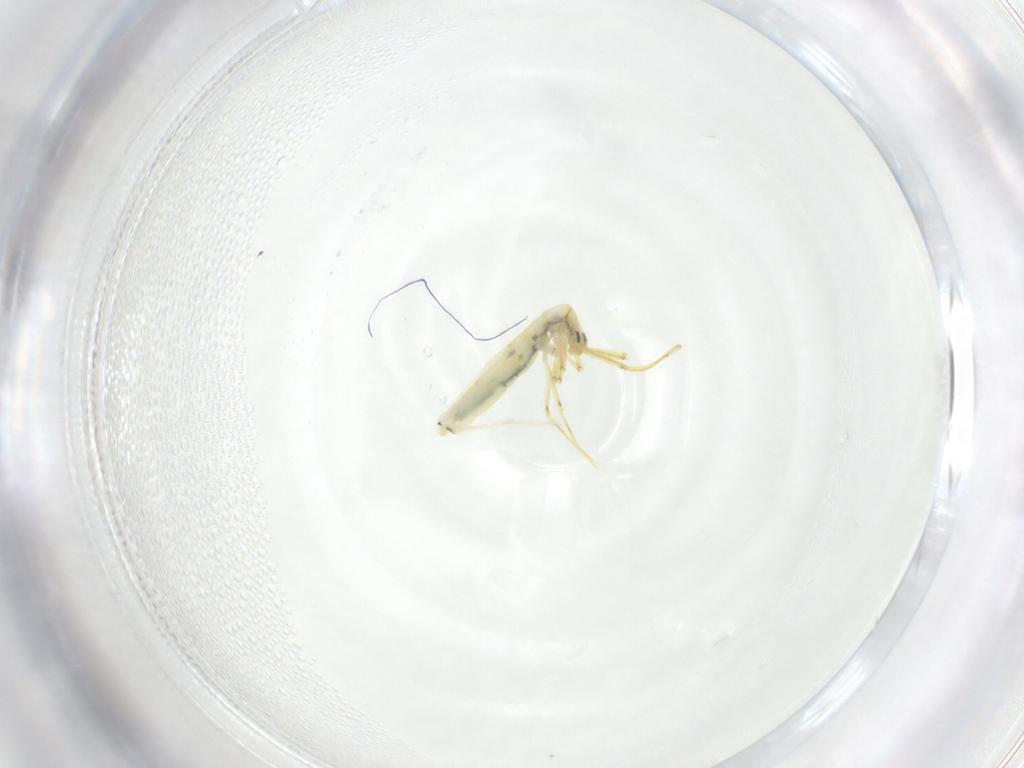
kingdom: Animalia
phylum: Arthropoda
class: Collembola
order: Entomobryomorpha
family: Entomobryidae
